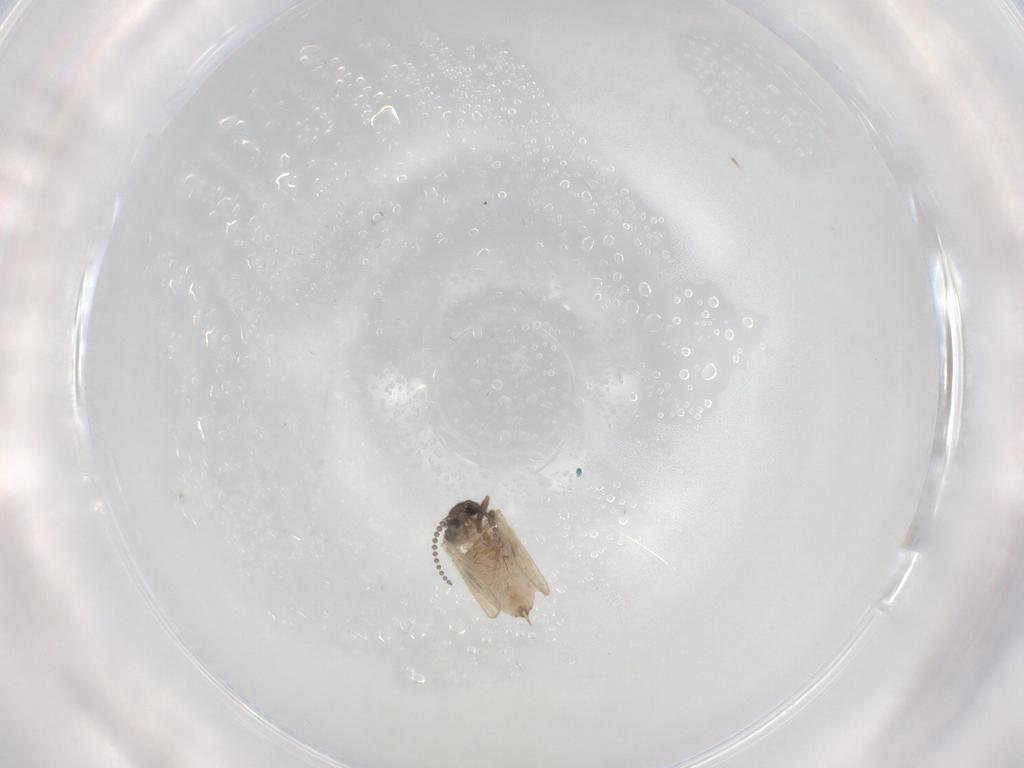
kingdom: Animalia
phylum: Arthropoda
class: Insecta
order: Diptera
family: Psychodidae
